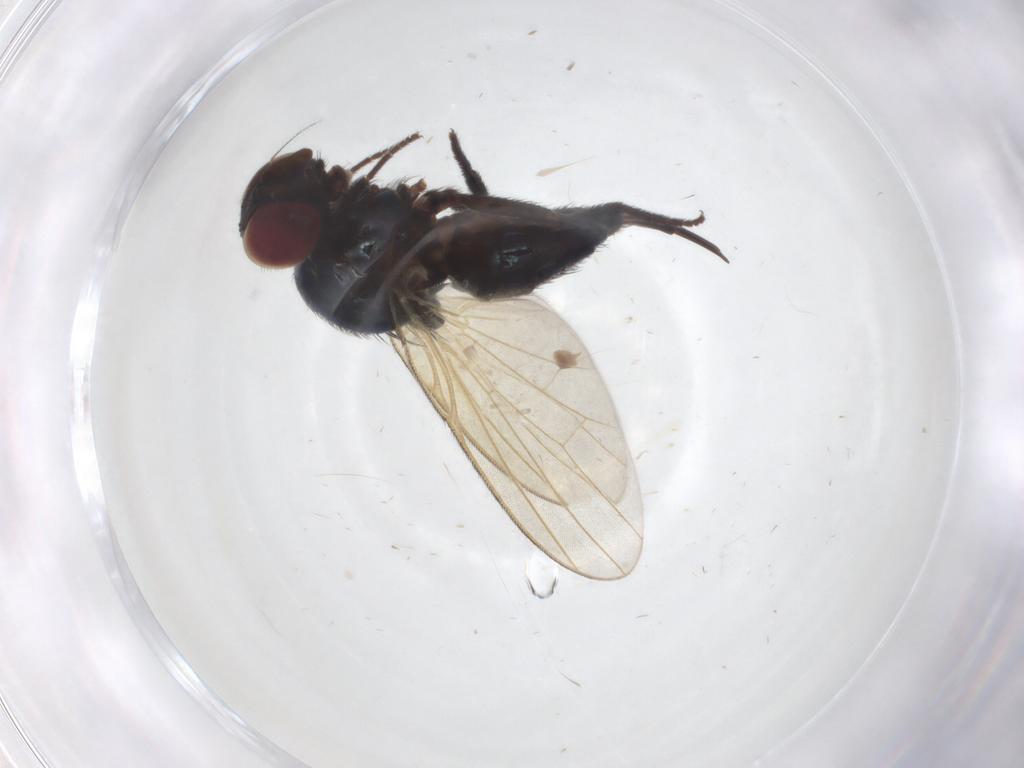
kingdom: Animalia
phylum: Arthropoda
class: Insecta
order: Diptera
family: Lonchaeidae
